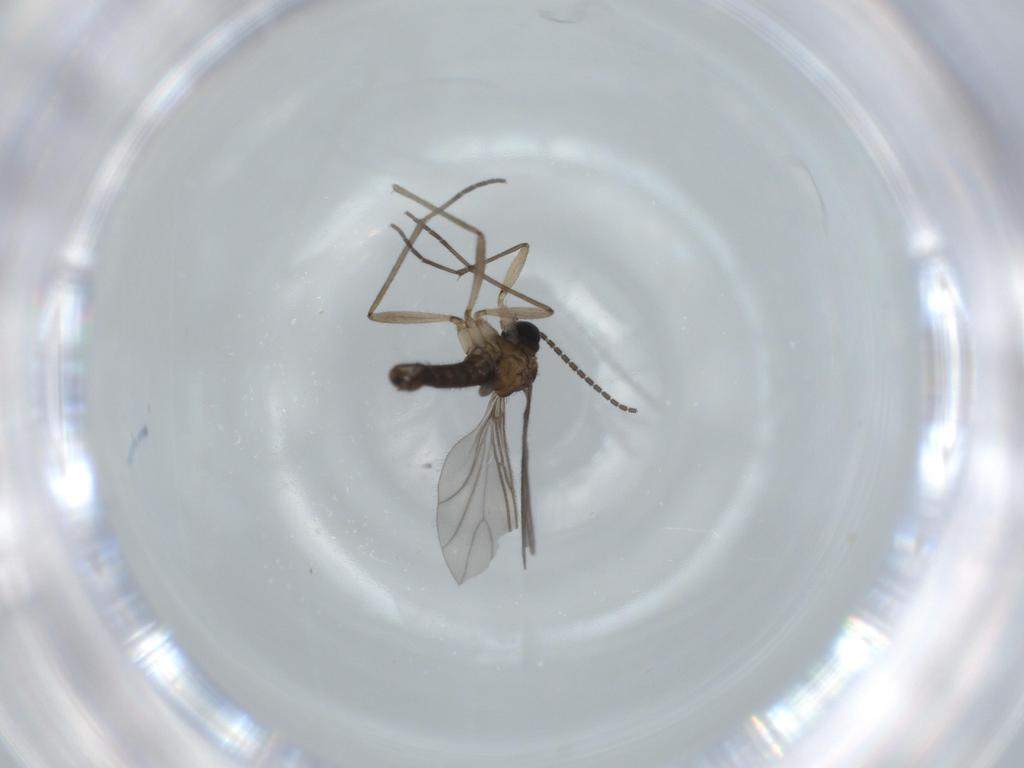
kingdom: Animalia
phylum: Arthropoda
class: Insecta
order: Diptera
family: Sciaridae
